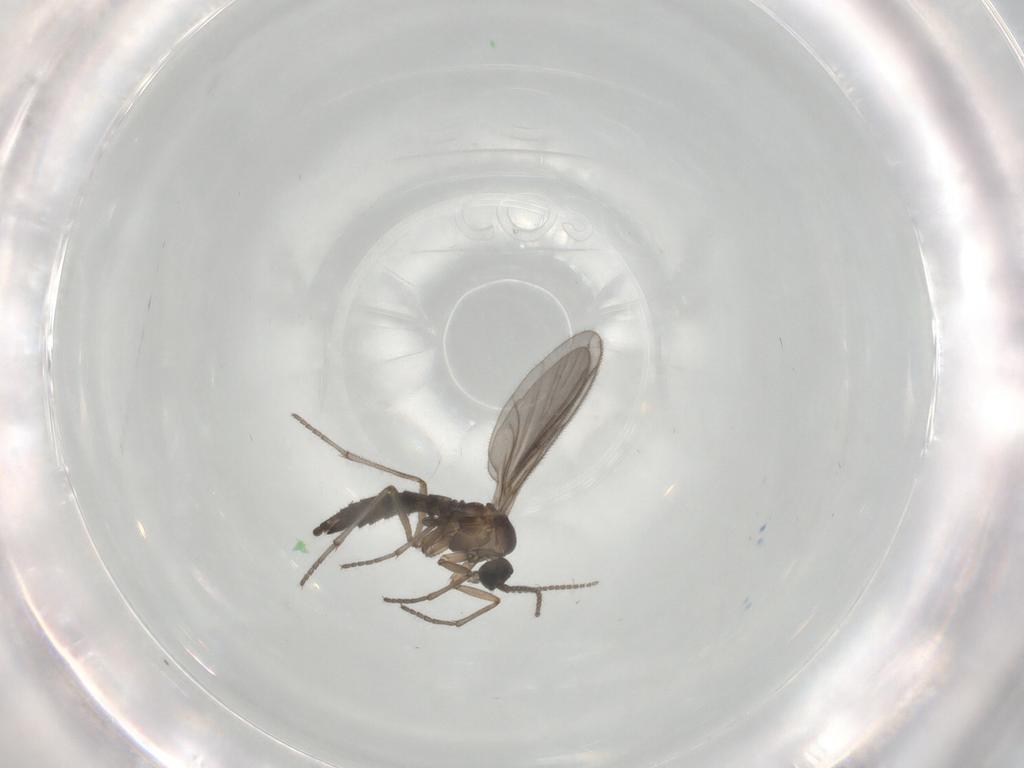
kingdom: Animalia
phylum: Arthropoda
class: Insecta
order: Diptera
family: Sciaridae
